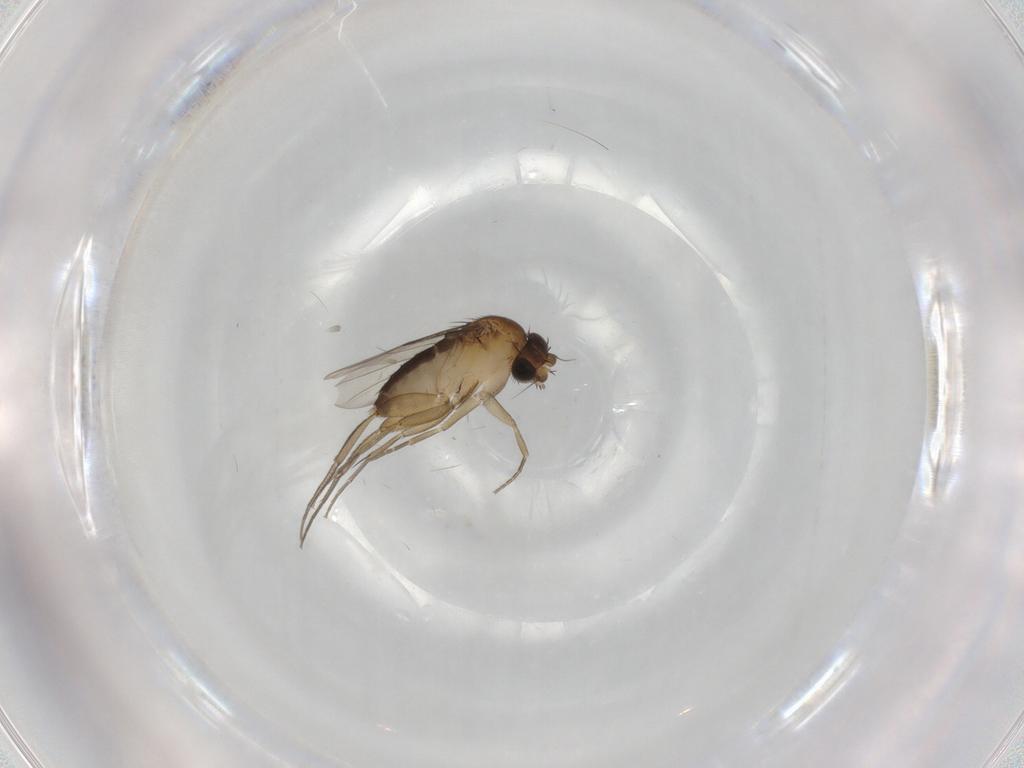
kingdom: Animalia
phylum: Arthropoda
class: Insecta
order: Diptera
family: Phoridae
